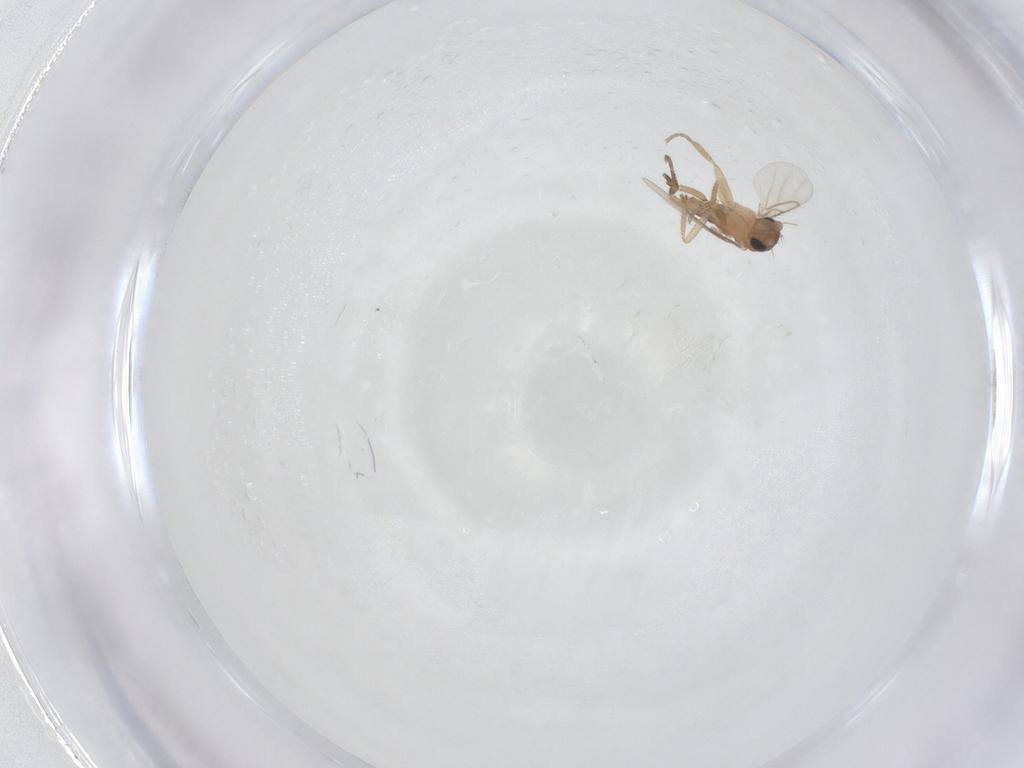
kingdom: Animalia
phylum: Arthropoda
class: Insecta
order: Diptera
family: Phoridae
